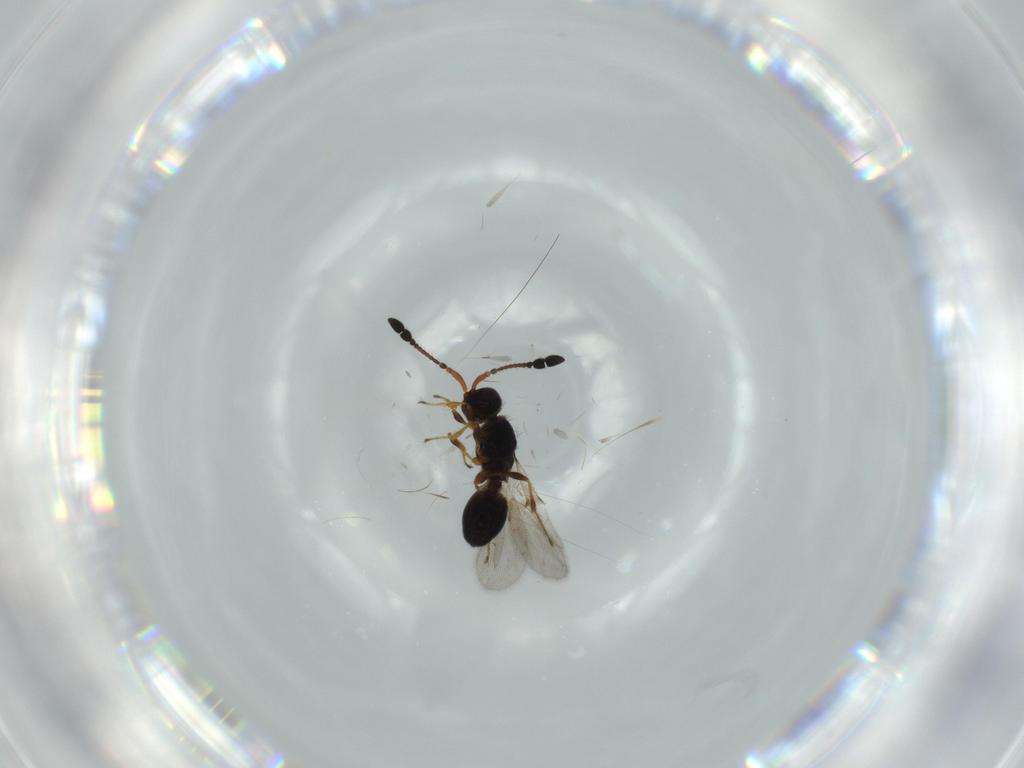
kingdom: Animalia
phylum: Arthropoda
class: Insecta
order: Hymenoptera
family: Diapriidae
